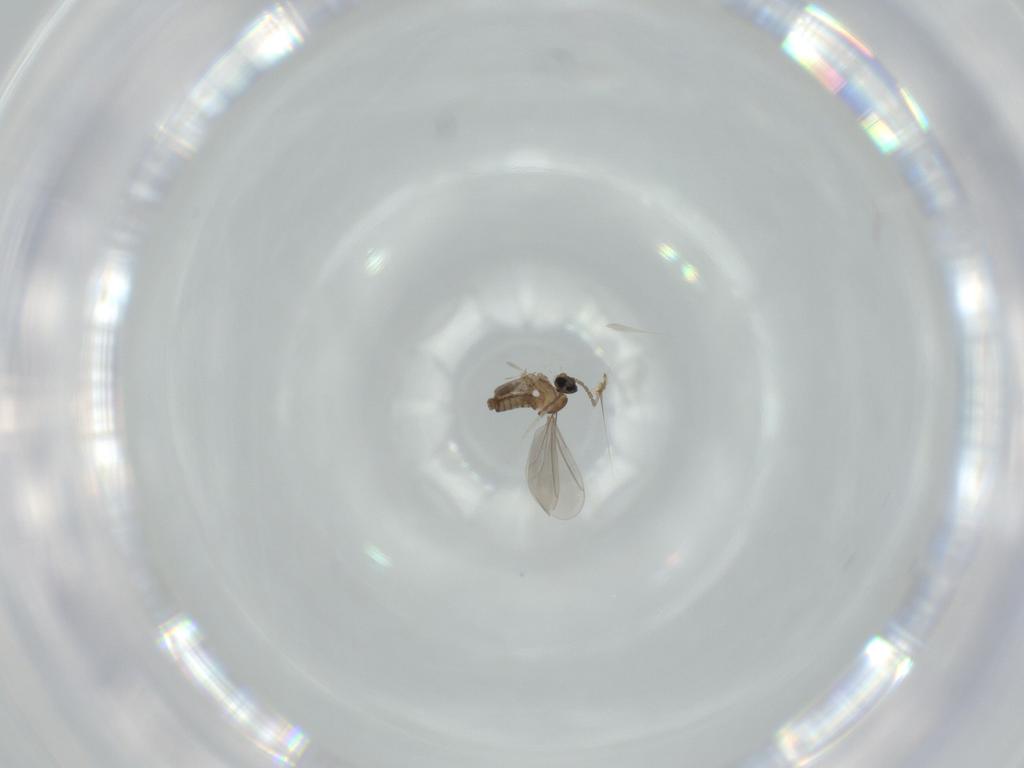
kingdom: Animalia
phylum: Arthropoda
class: Insecta
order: Diptera
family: Cecidomyiidae
